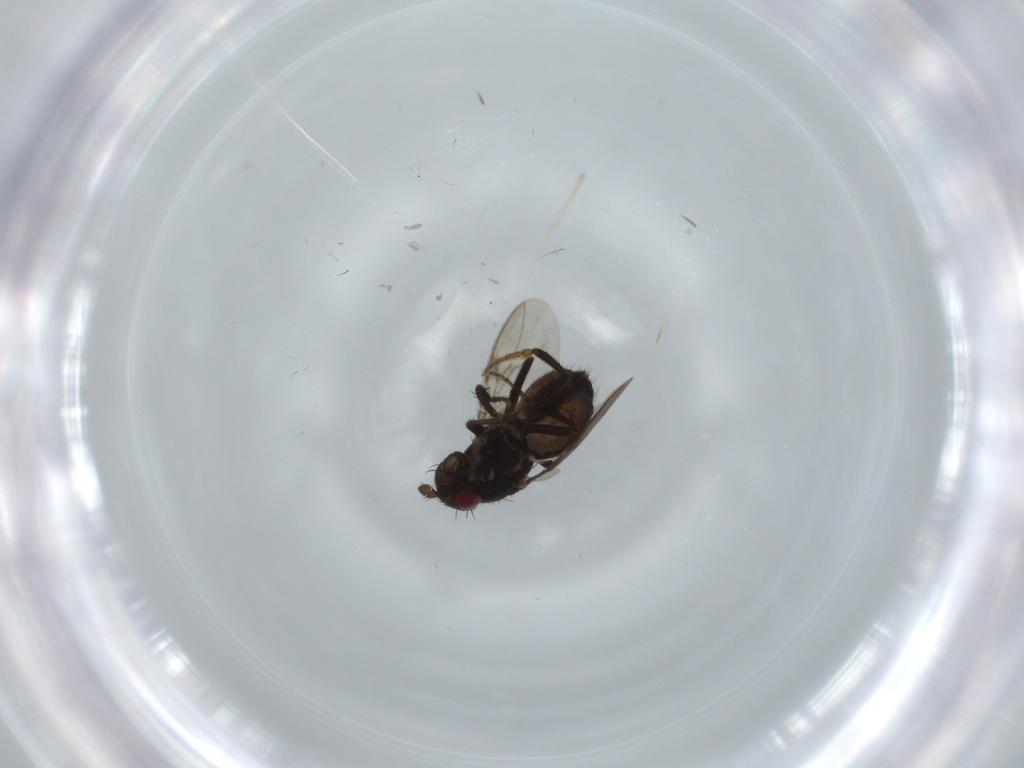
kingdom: Animalia
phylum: Arthropoda
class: Insecta
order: Diptera
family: Sphaeroceridae
